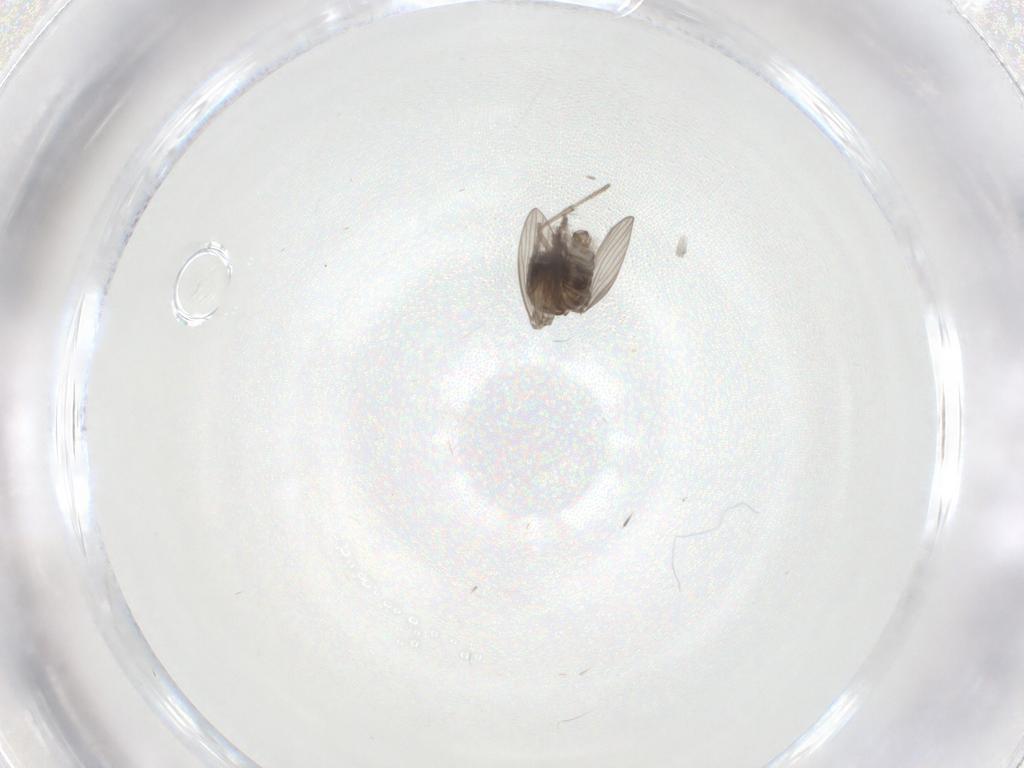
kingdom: Animalia
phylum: Arthropoda
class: Insecta
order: Diptera
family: Psychodidae
